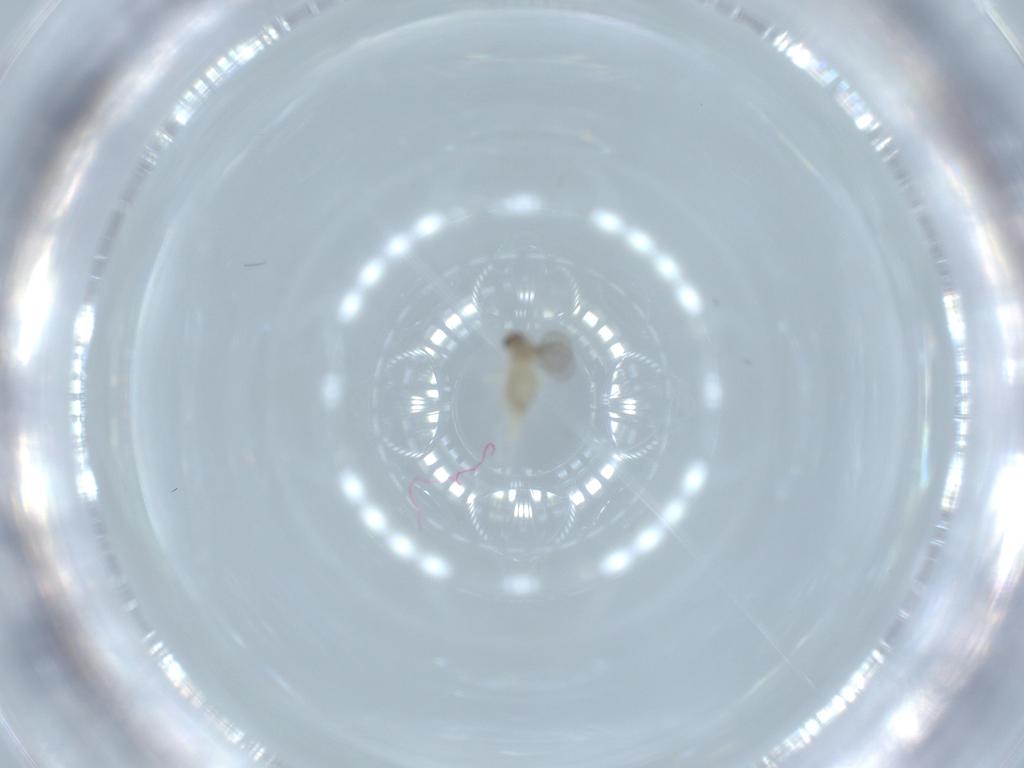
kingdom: Animalia
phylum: Arthropoda
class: Insecta
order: Diptera
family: Cecidomyiidae
